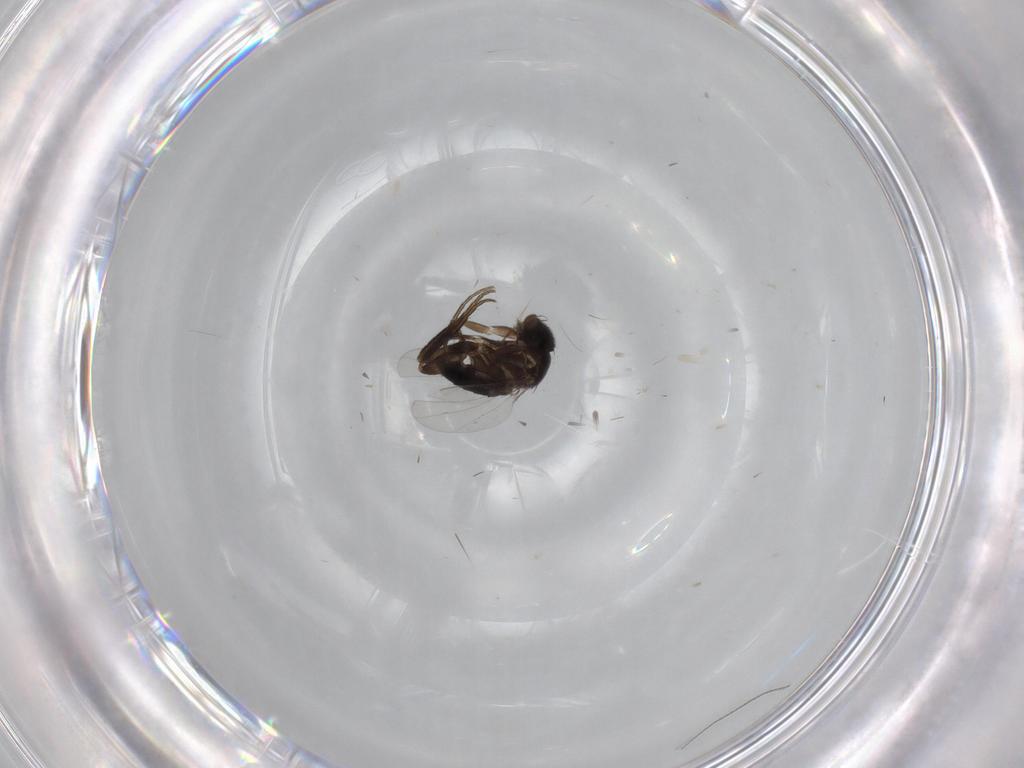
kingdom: Animalia
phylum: Arthropoda
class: Insecta
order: Diptera
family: Phoridae
